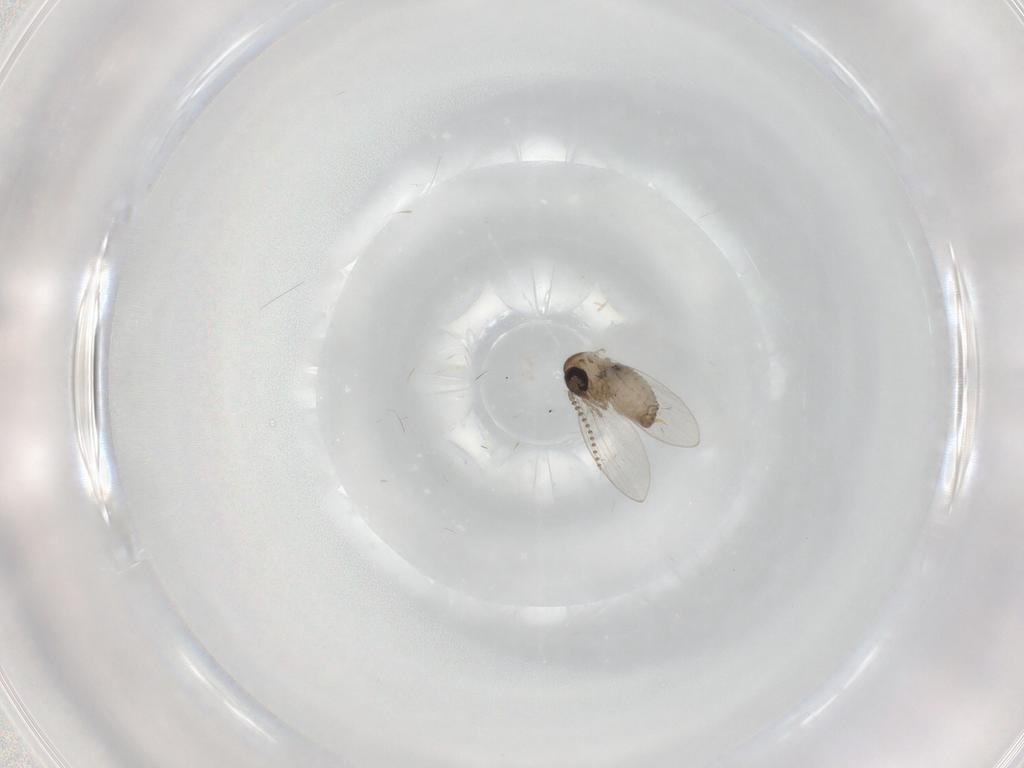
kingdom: Animalia
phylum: Arthropoda
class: Insecta
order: Diptera
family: Psychodidae
